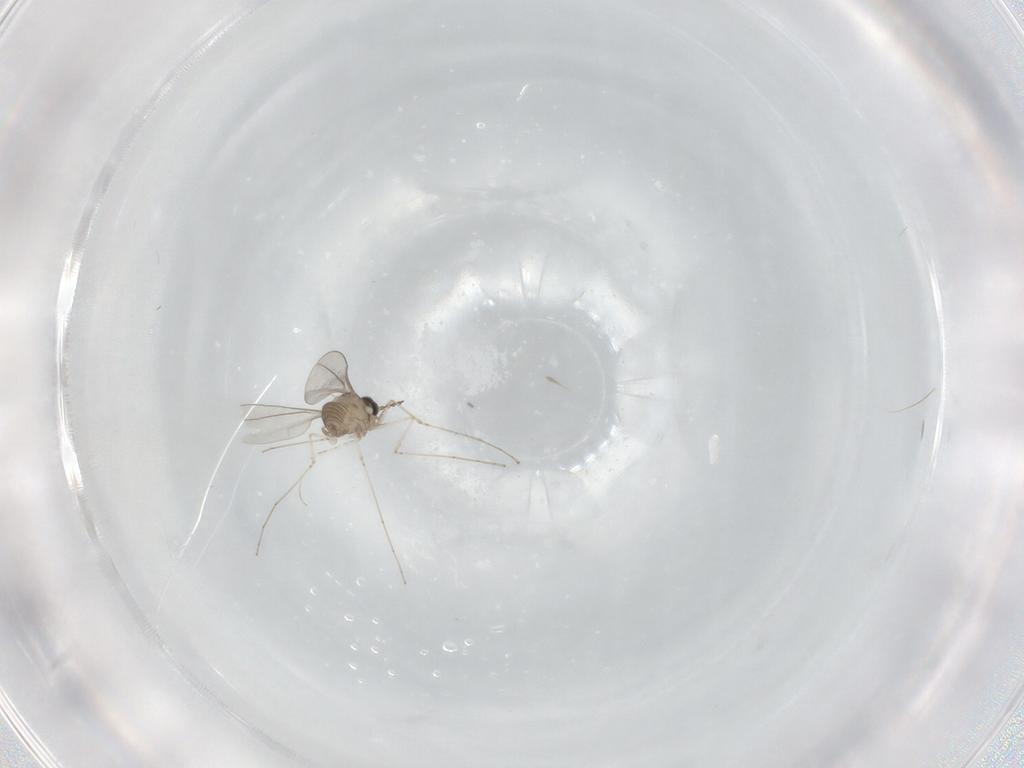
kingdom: Animalia
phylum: Arthropoda
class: Insecta
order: Diptera
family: Cecidomyiidae
